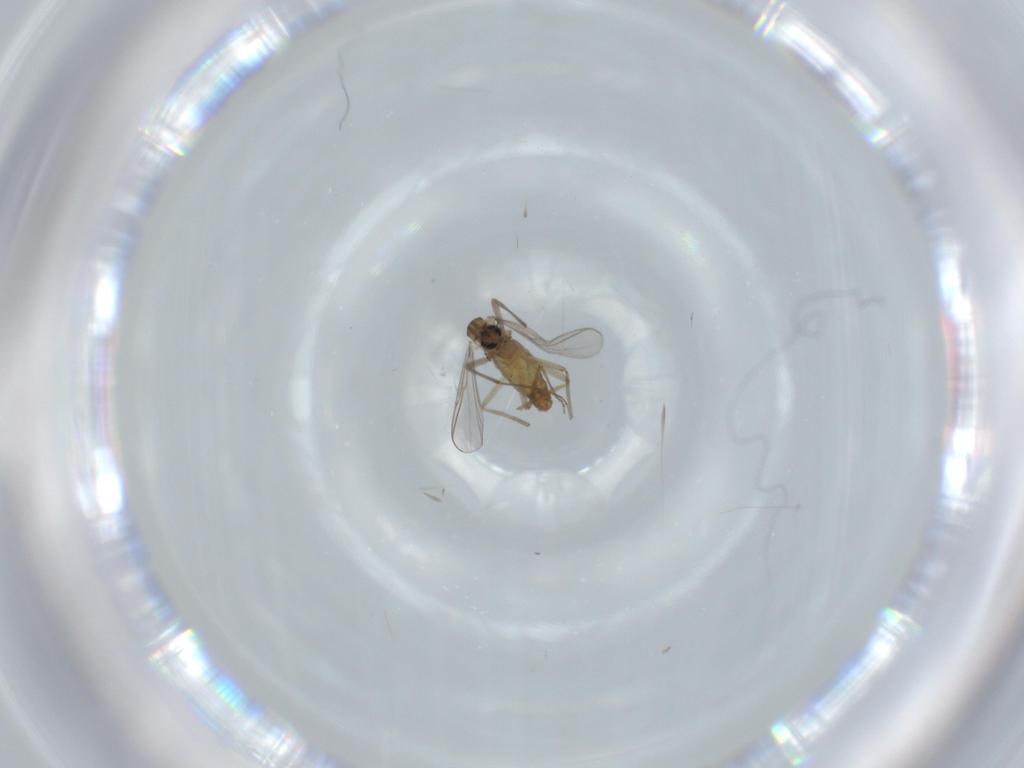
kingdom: Animalia
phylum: Arthropoda
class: Insecta
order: Diptera
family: Chironomidae
